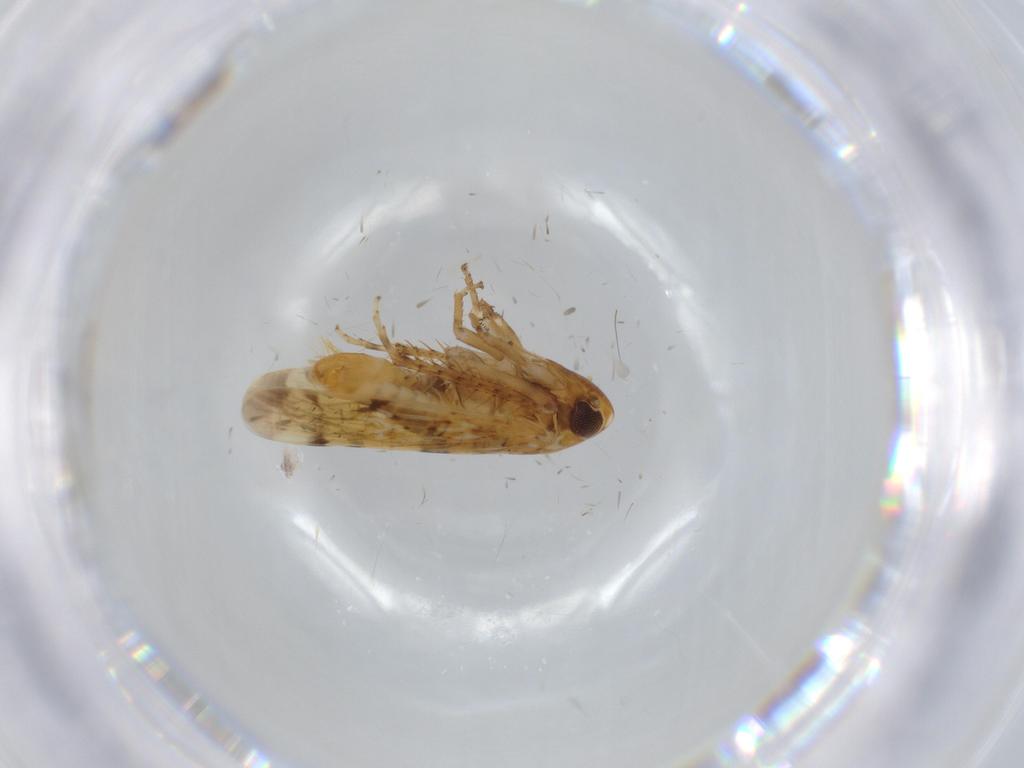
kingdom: Animalia
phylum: Arthropoda
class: Insecta
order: Hemiptera
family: Cicadellidae
